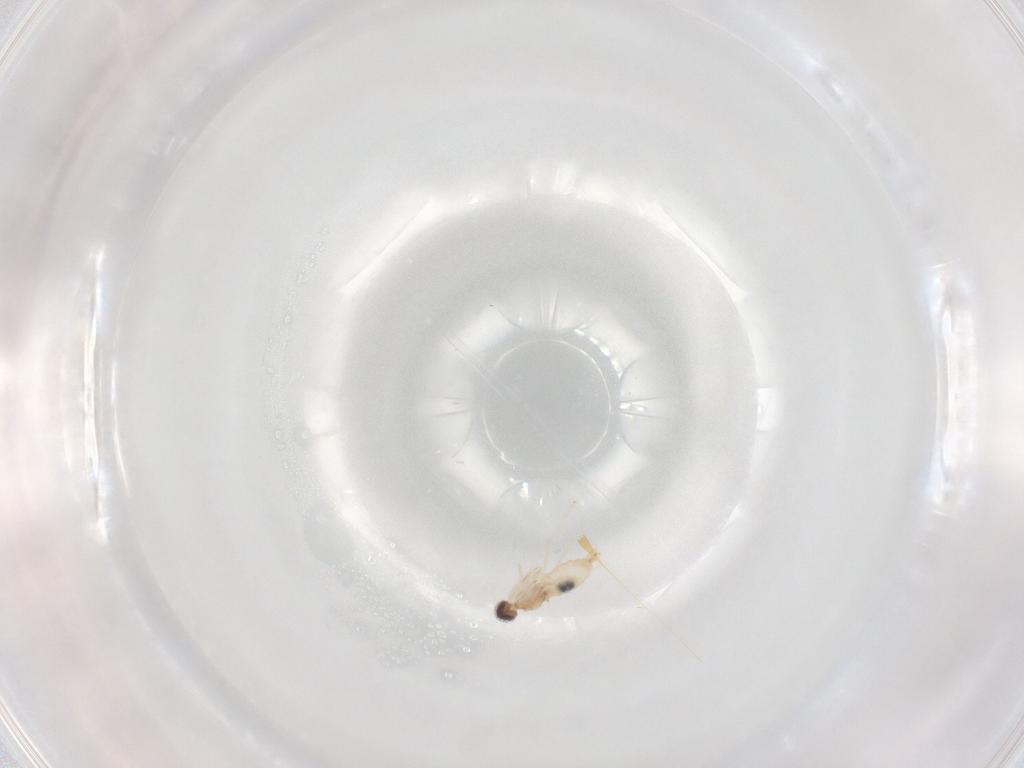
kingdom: Animalia
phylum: Arthropoda
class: Insecta
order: Diptera
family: Cecidomyiidae
